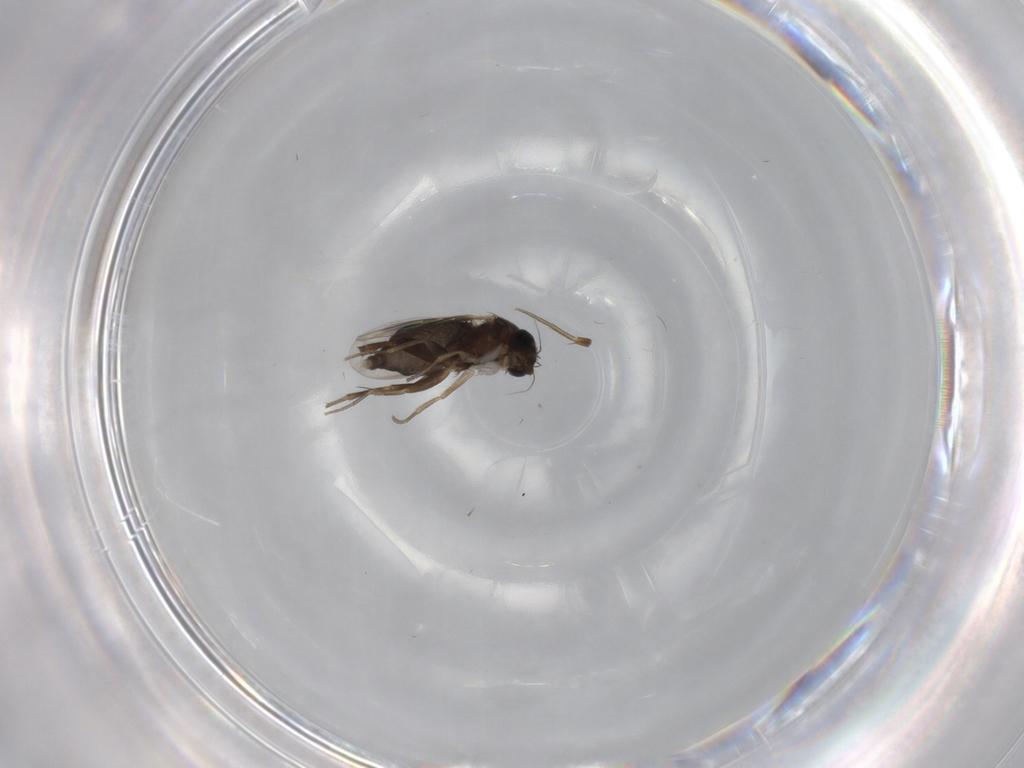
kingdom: Animalia
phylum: Arthropoda
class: Insecta
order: Diptera
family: Phoridae
